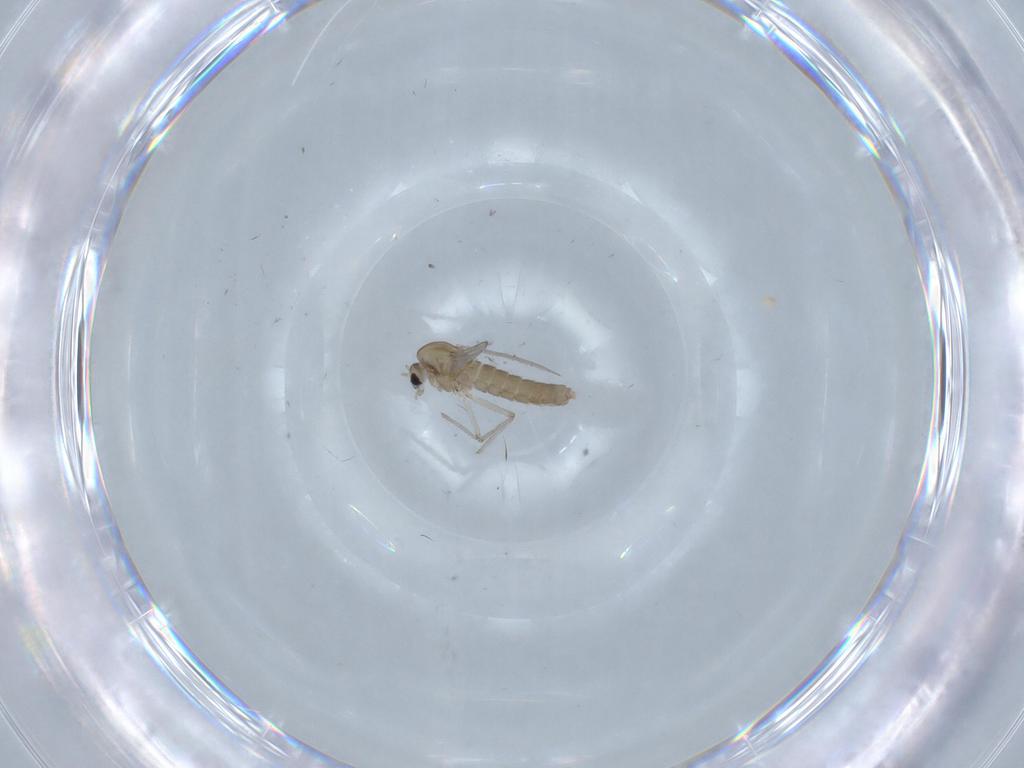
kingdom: Animalia
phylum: Arthropoda
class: Insecta
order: Diptera
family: Chironomidae
